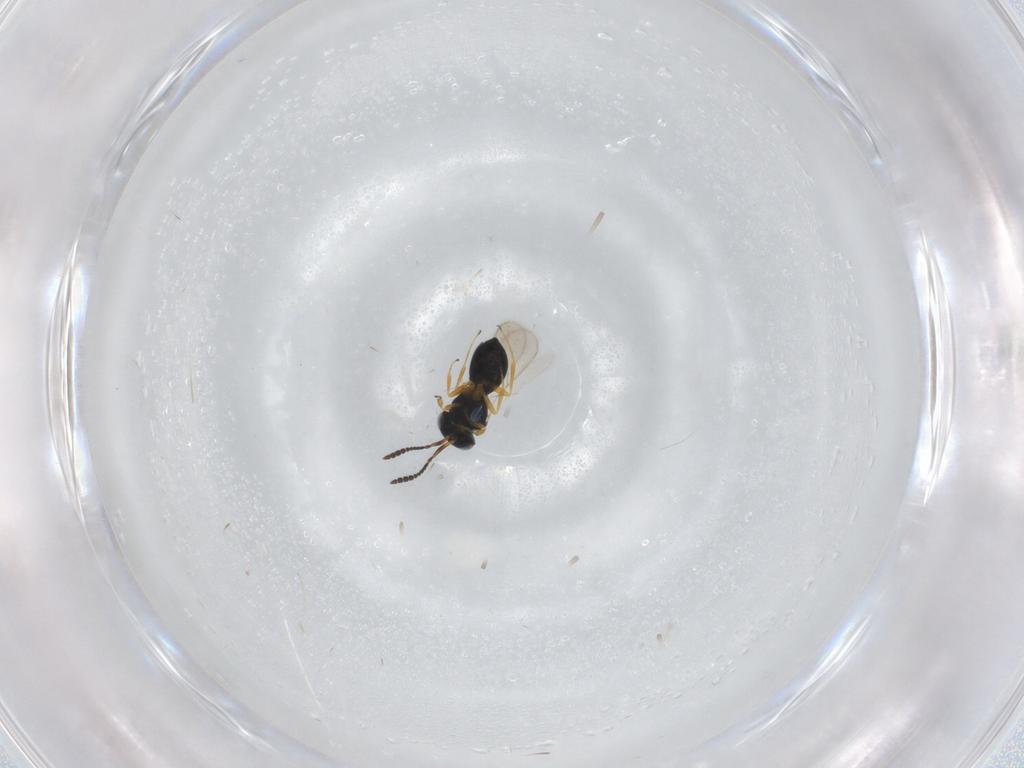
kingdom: Animalia
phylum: Arthropoda
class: Insecta
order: Hymenoptera
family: Scelionidae
